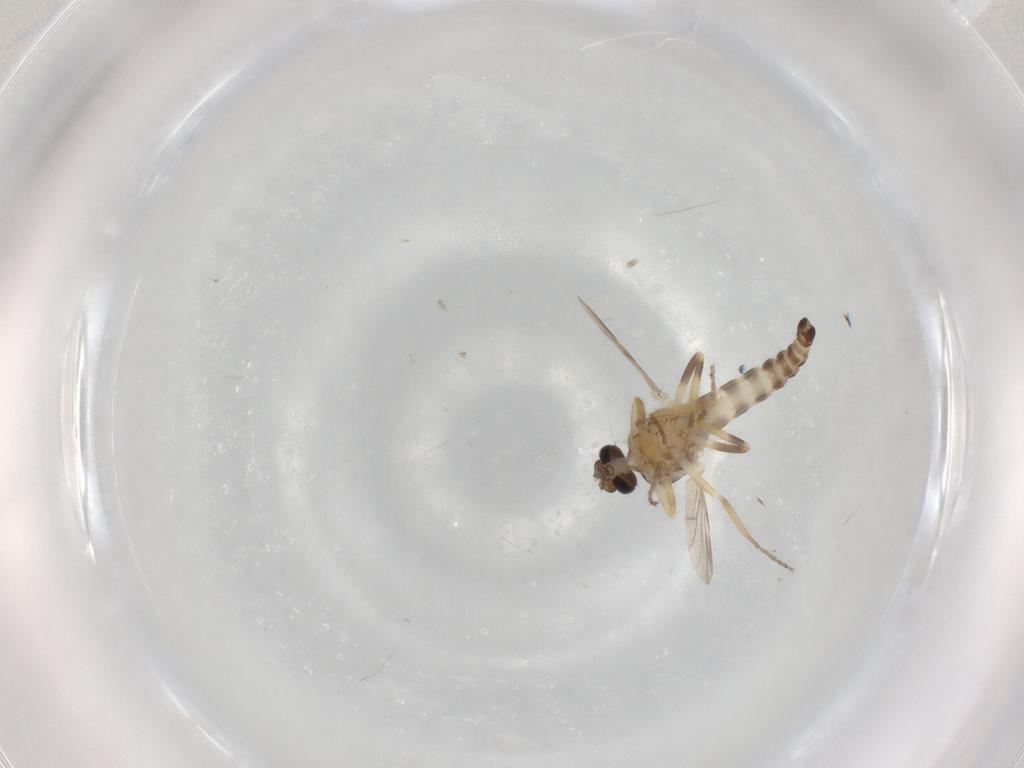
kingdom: Animalia
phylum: Arthropoda
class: Insecta
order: Diptera
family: Ceratopogonidae
